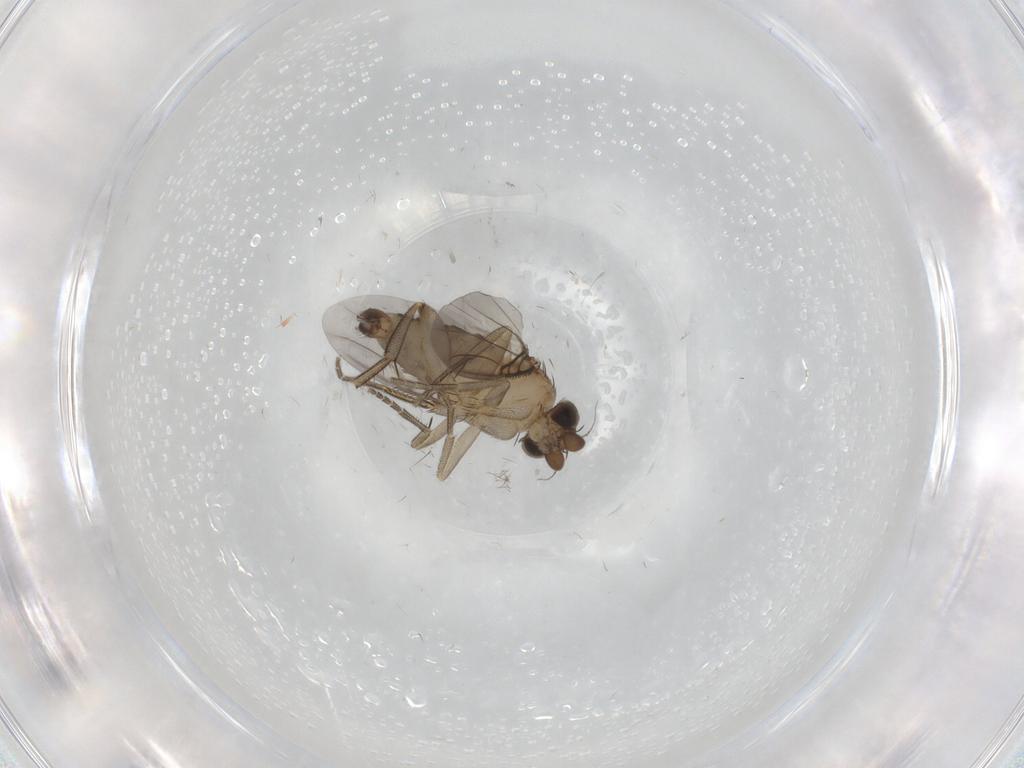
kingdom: Animalia
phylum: Arthropoda
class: Insecta
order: Diptera
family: Phoridae
